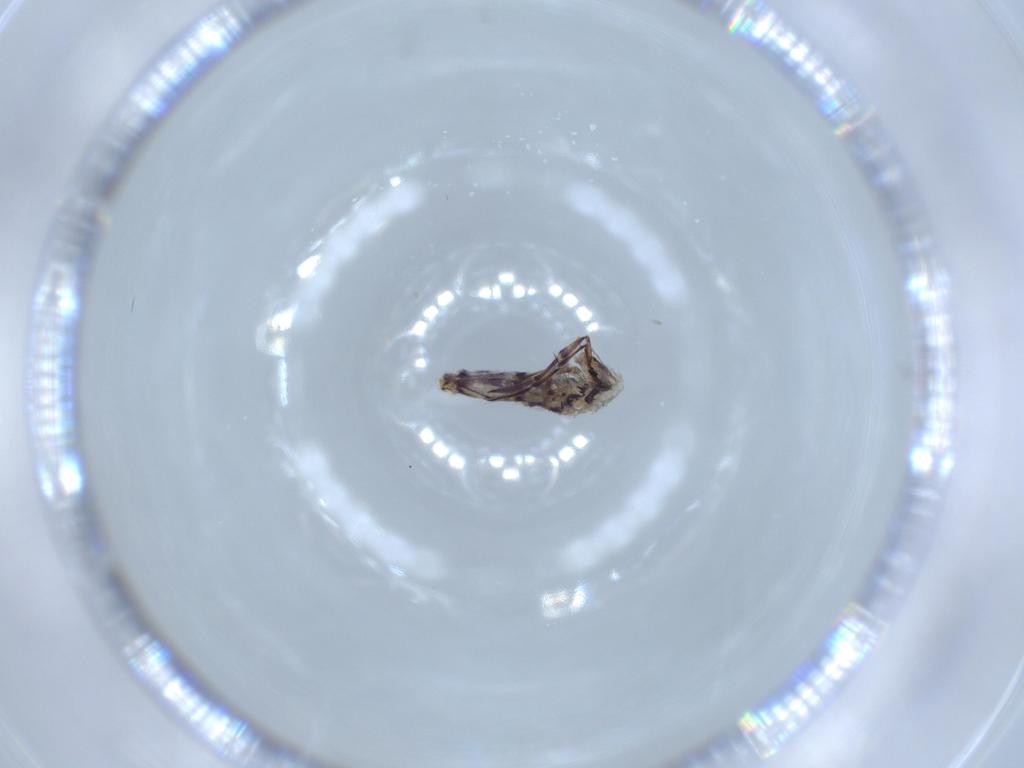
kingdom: Animalia
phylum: Arthropoda
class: Collembola
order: Entomobryomorpha
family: Entomobryidae
